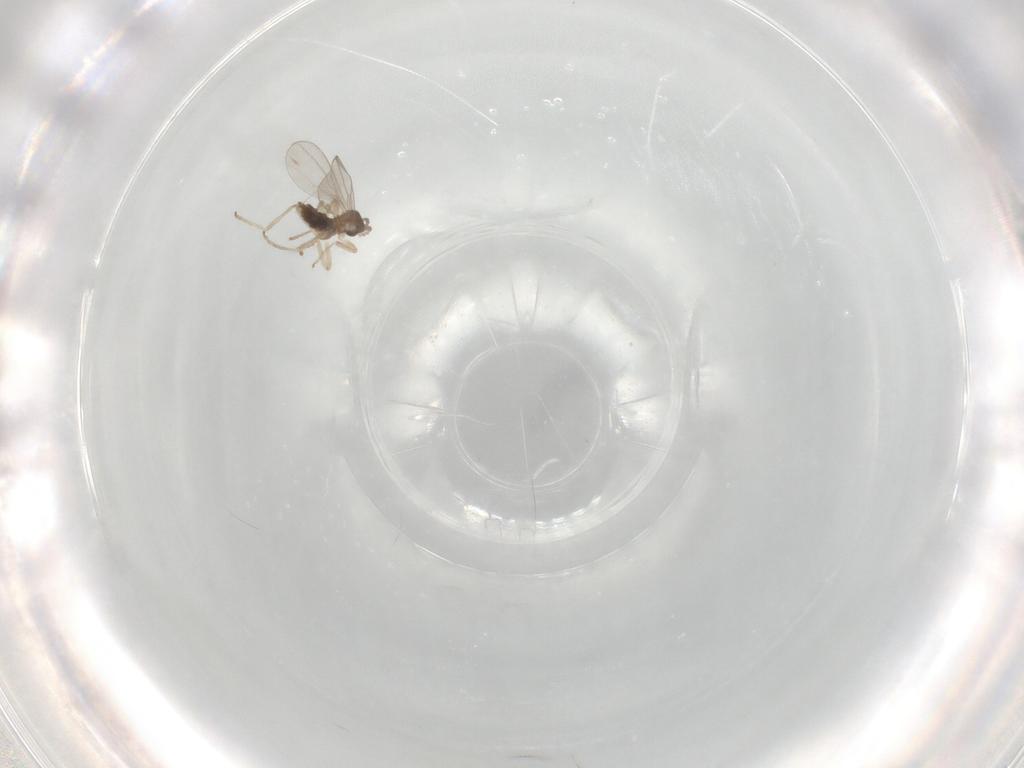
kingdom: Animalia
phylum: Arthropoda
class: Insecta
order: Diptera
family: Cecidomyiidae
